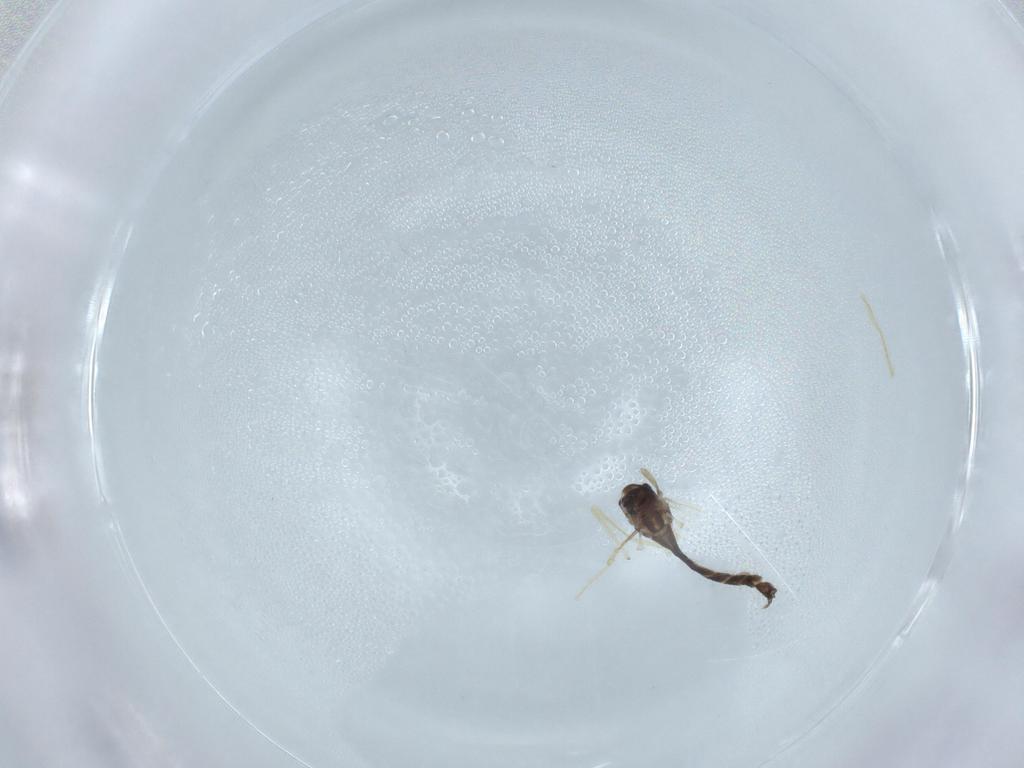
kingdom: Animalia
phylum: Arthropoda
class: Insecta
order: Diptera
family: Chironomidae
